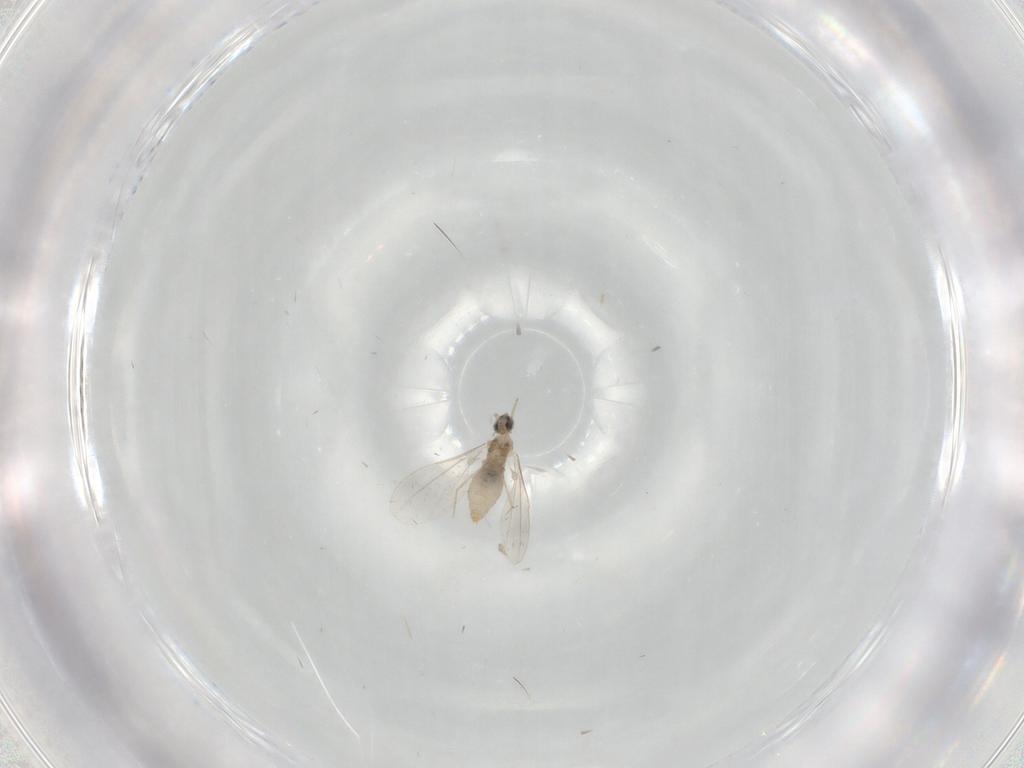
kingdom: Animalia
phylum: Arthropoda
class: Insecta
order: Diptera
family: Cecidomyiidae
